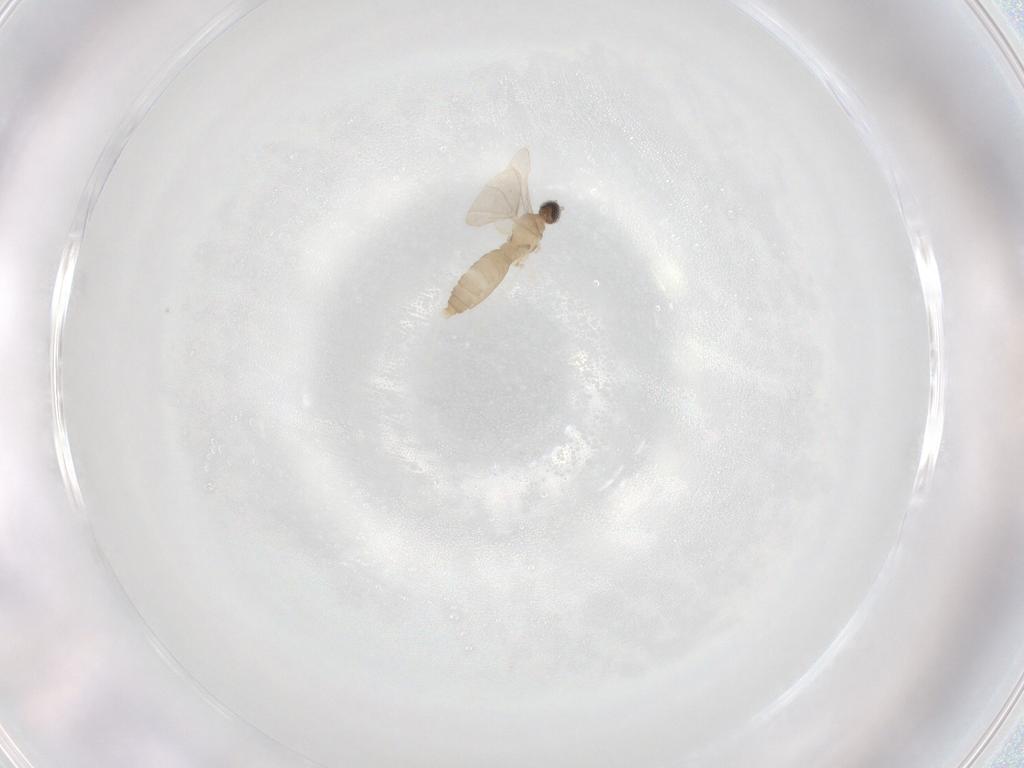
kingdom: Animalia
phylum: Arthropoda
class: Insecta
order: Diptera
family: Cecidomyiidae
